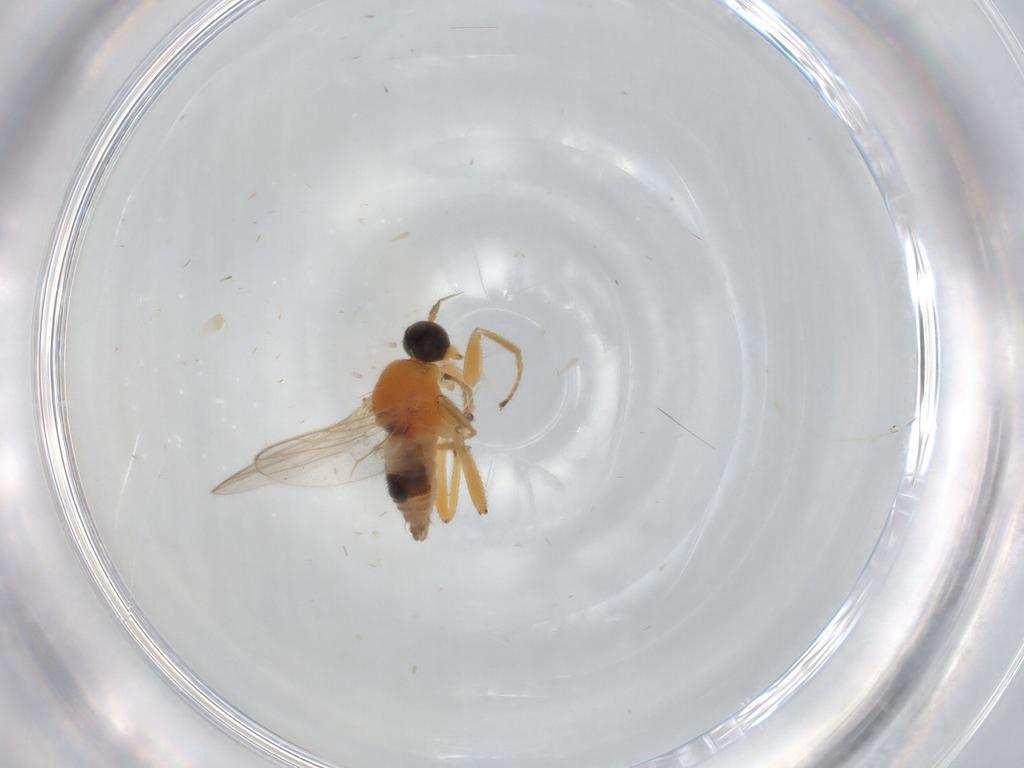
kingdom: Animalia
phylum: Arthropoda
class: Insecta
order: Diptera
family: Hybotidae
